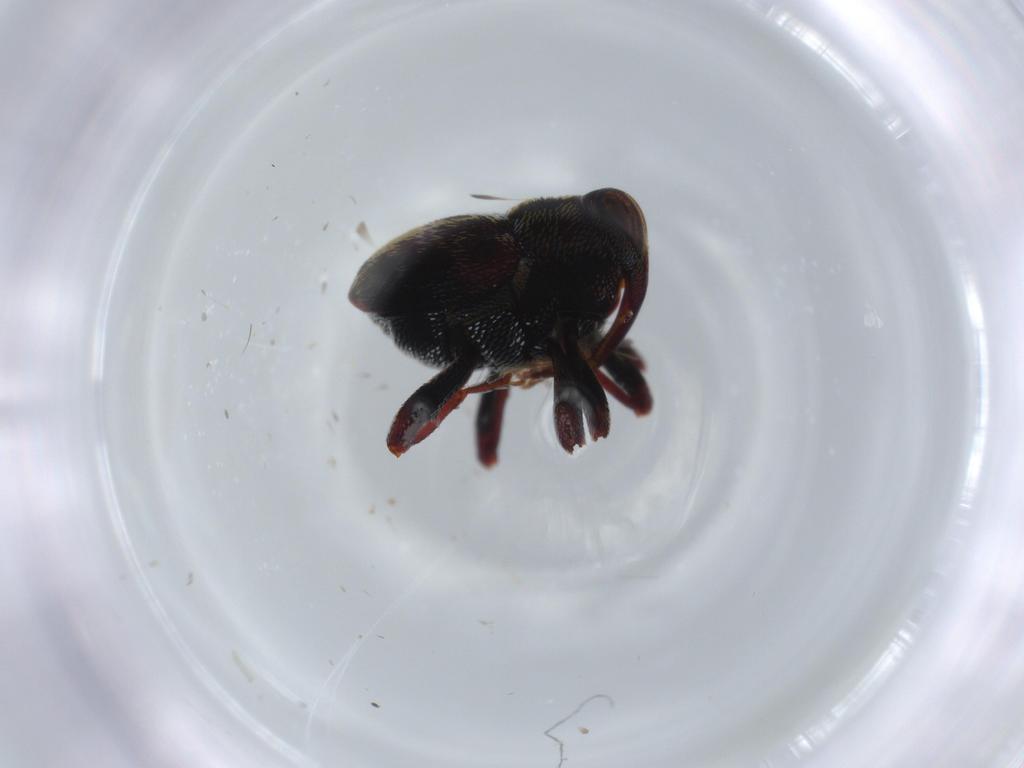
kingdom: Animalia
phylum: Arthropoda
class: Insecta
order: Coleoptera
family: Curculionidae
